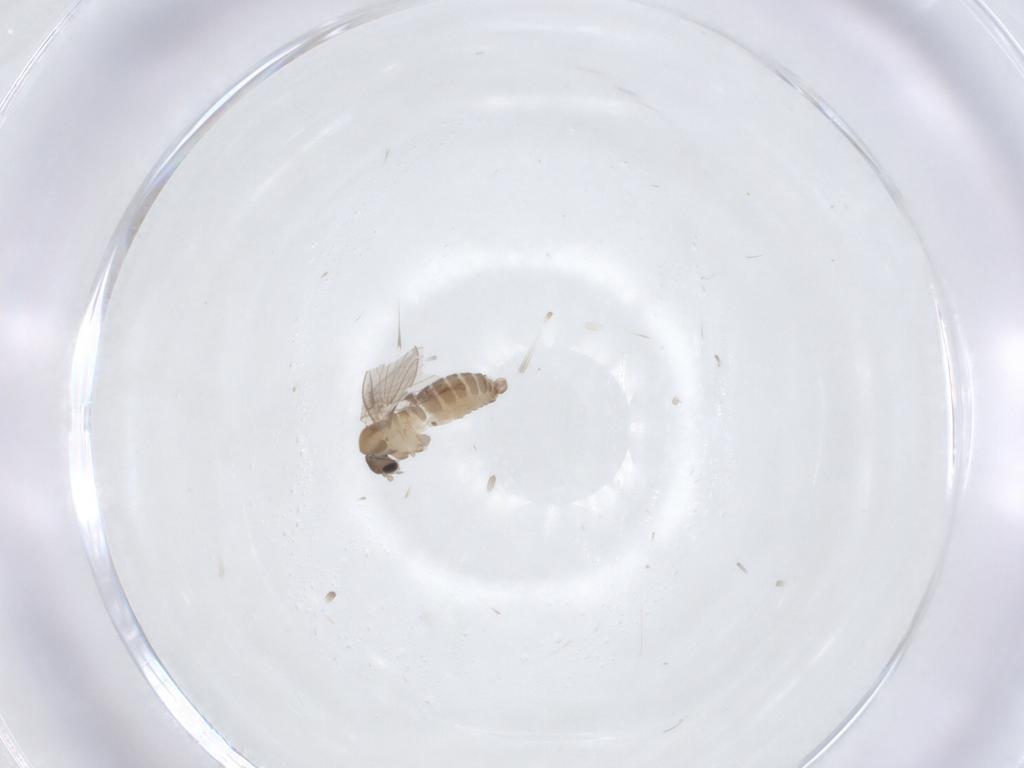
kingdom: Animalia
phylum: Arthropoda
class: Insecta
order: Diptera
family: Psychodidae
